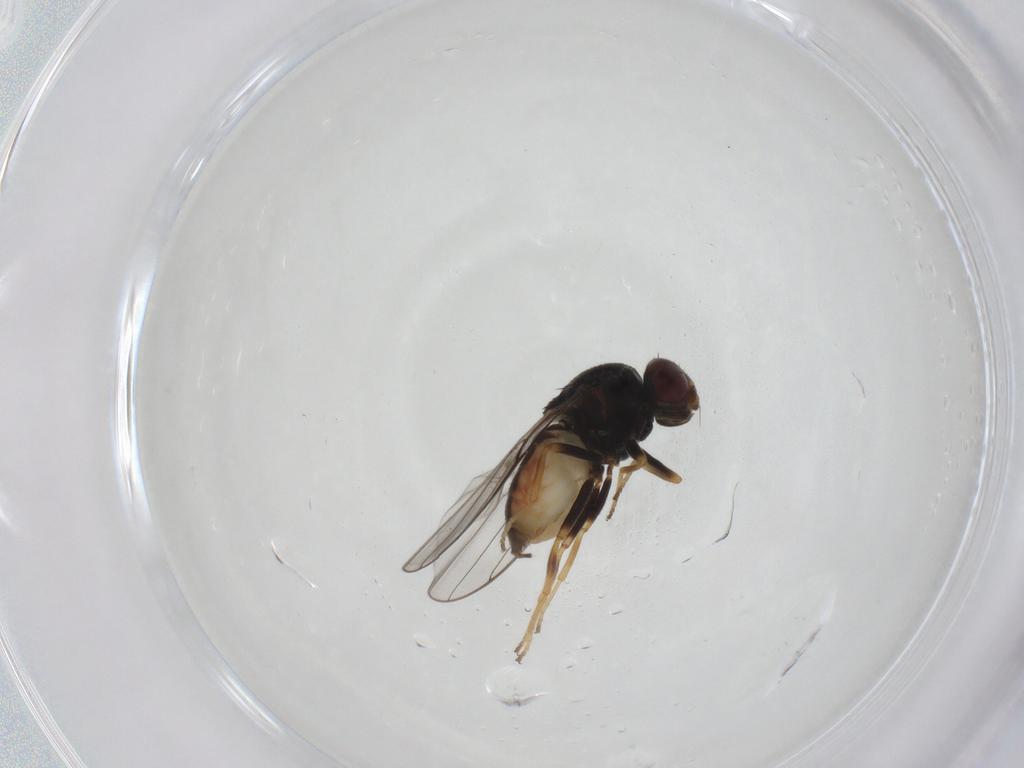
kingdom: Animalia
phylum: Arthropoda
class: Insecta
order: Diptera
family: Chloropidae
